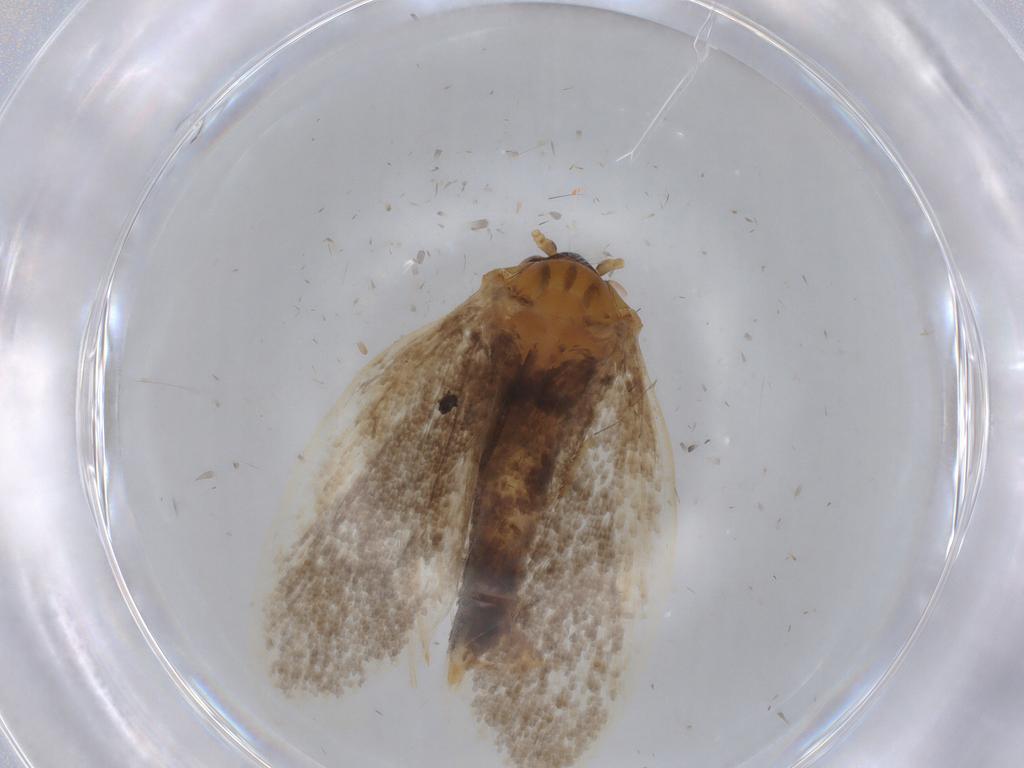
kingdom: Animalia
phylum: Arthropoda
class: Insecta
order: Lepidoptera
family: Nepticulidae
